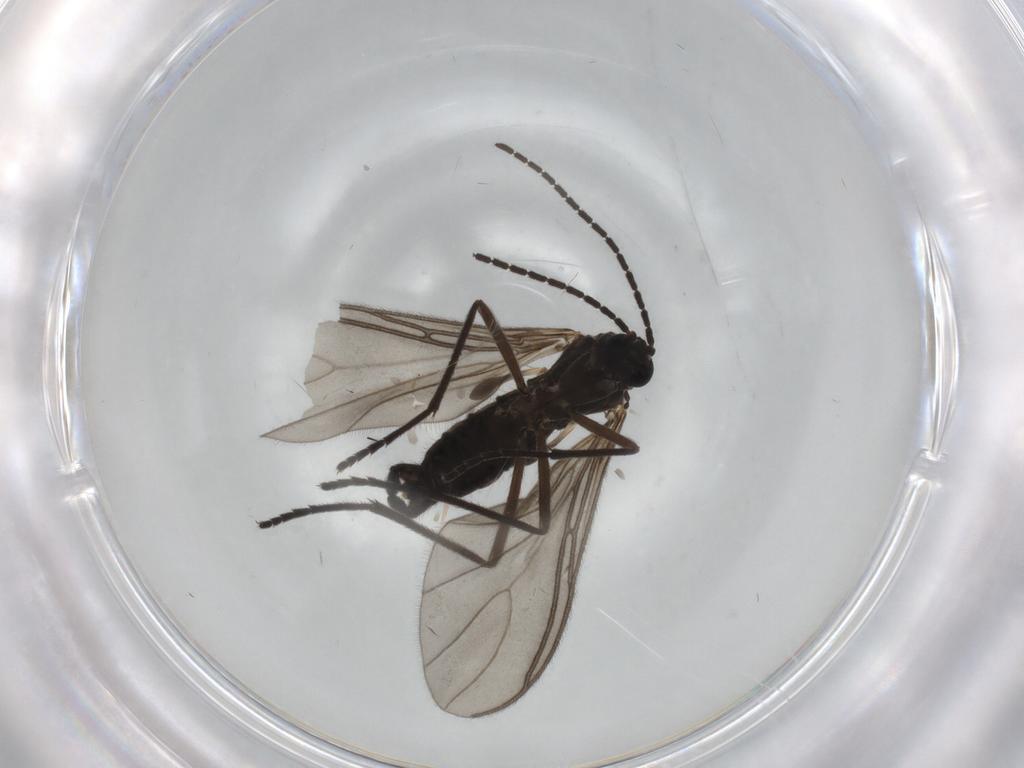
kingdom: Animalia
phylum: Arthropoda
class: Insecta
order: Diptera
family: Sciaridae
